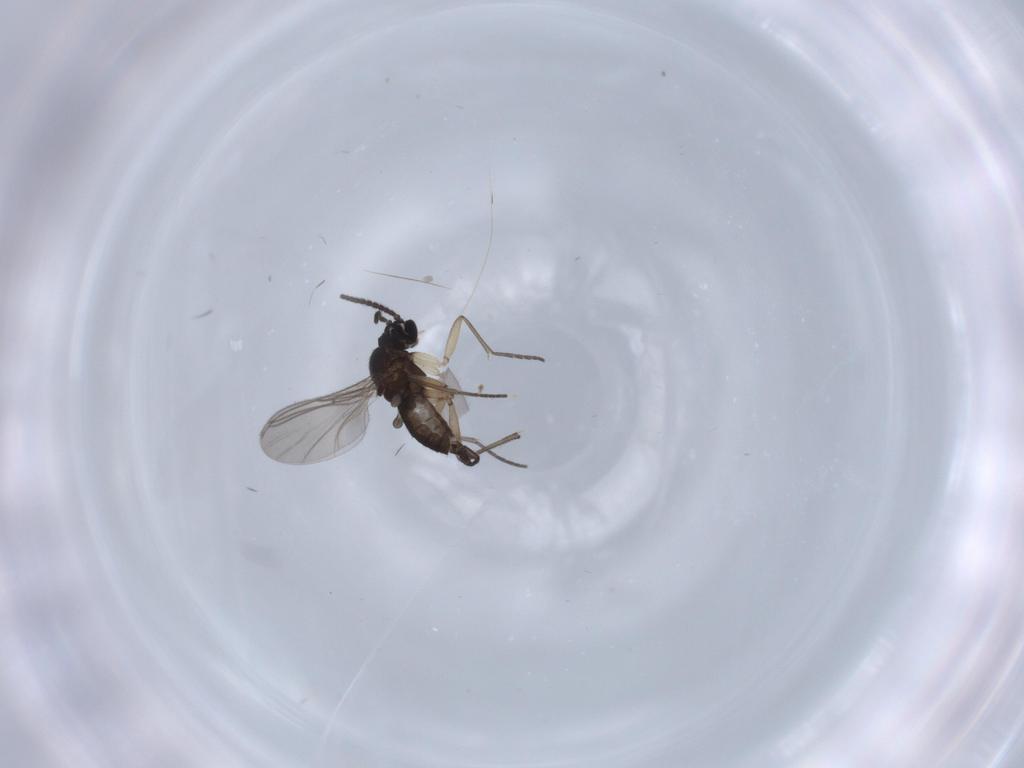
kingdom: Animalia
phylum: Arthropoda
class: Insecta
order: Diptera
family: Sciaridae
